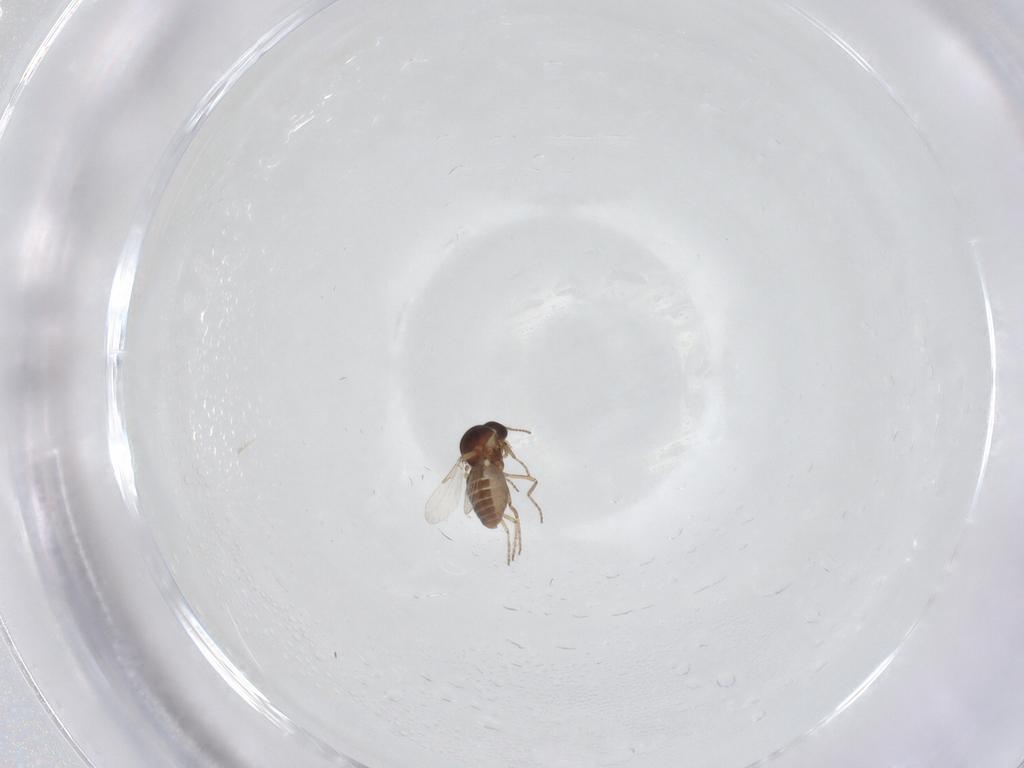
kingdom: Animalia
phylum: Arthropoda
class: Insecta
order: Diptera
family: Ceratopogonidae
